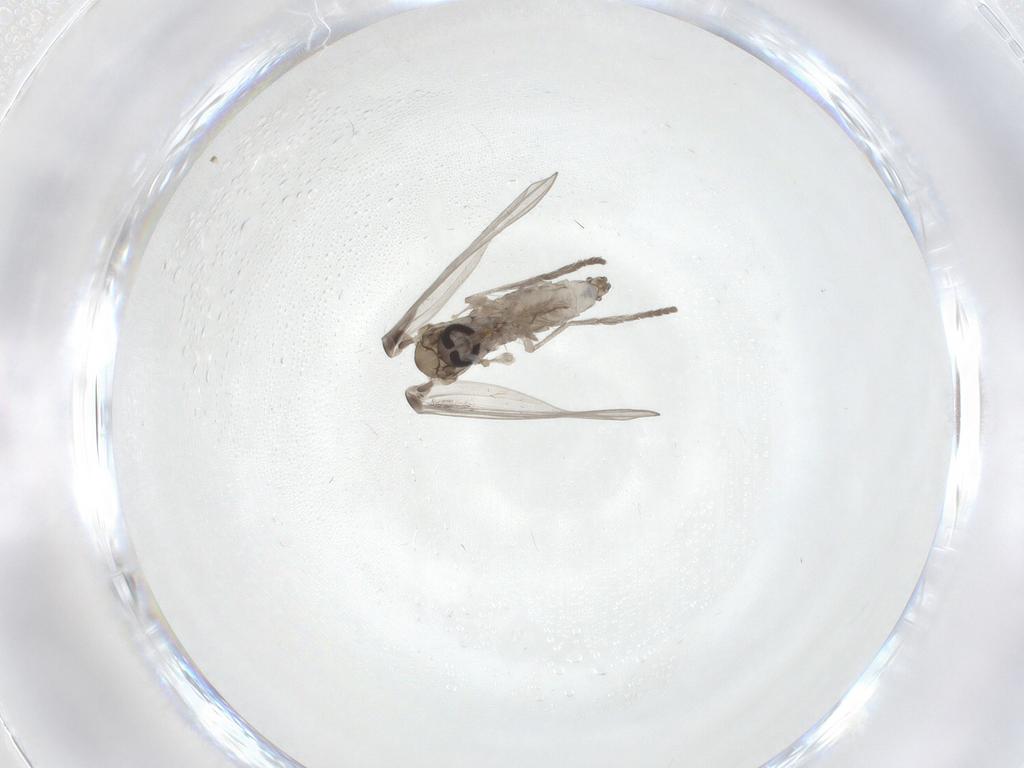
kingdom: Animalia
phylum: Arthropoda
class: Insecta
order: Diptera
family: Psychodidae
